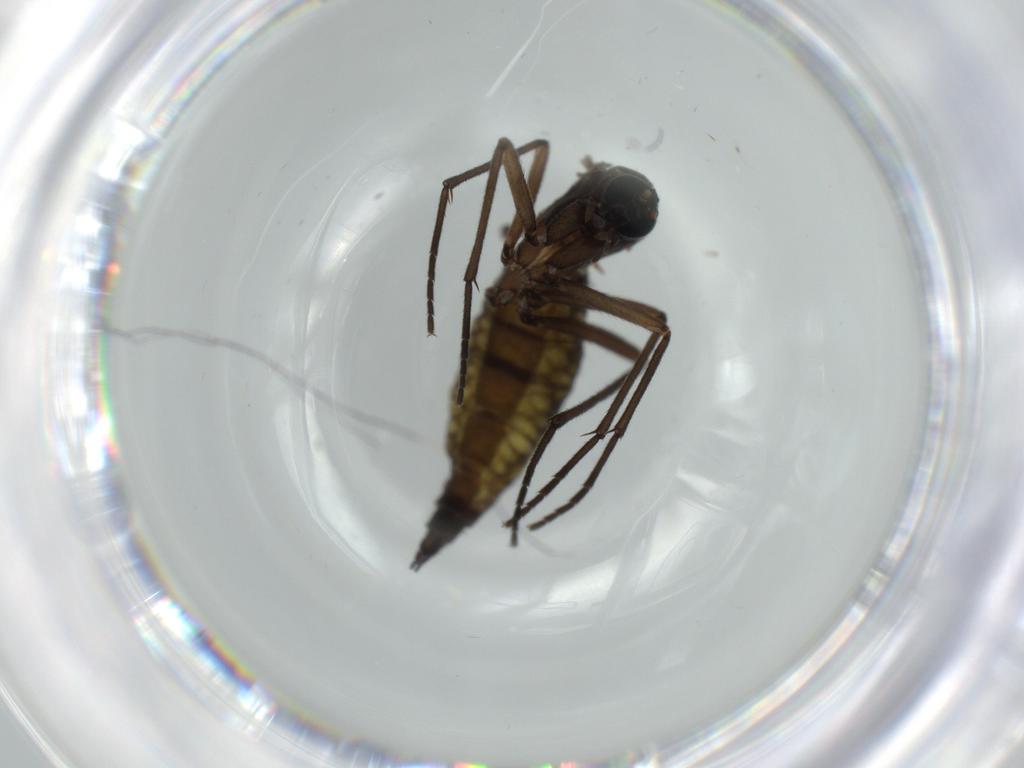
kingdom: Animalia
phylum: Arthropoda
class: Insecta
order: Diptera
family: Sciaridae
